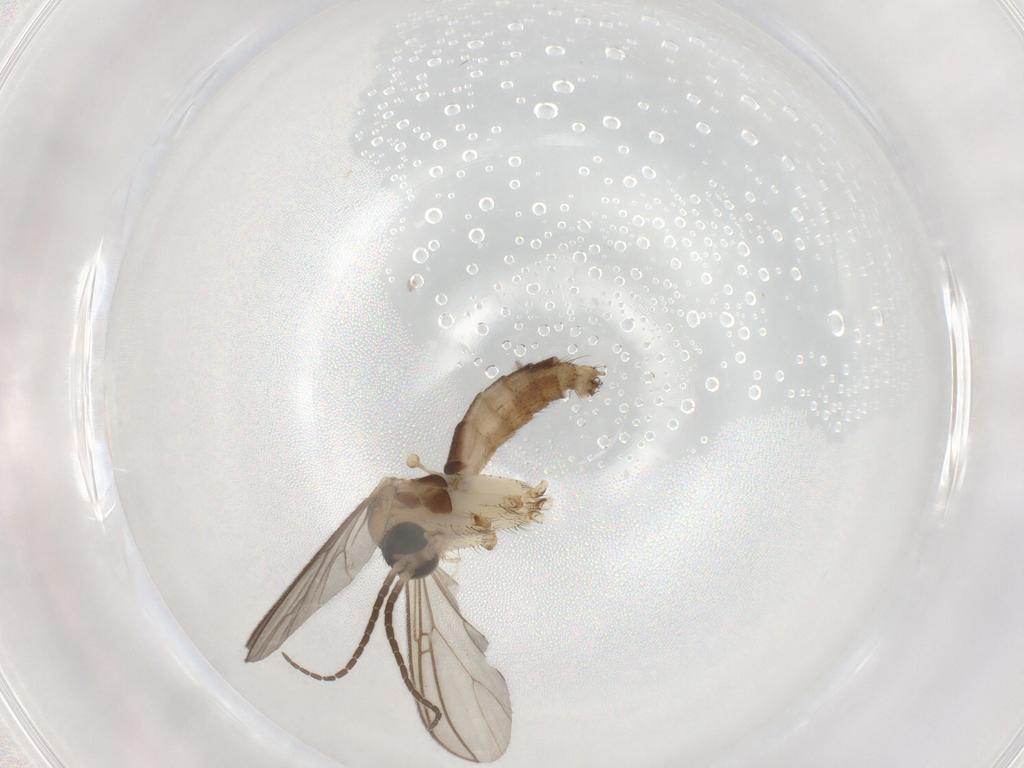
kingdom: Animalia
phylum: Arthropoda
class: Insecta
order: Diptera
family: Mycetophilidae
